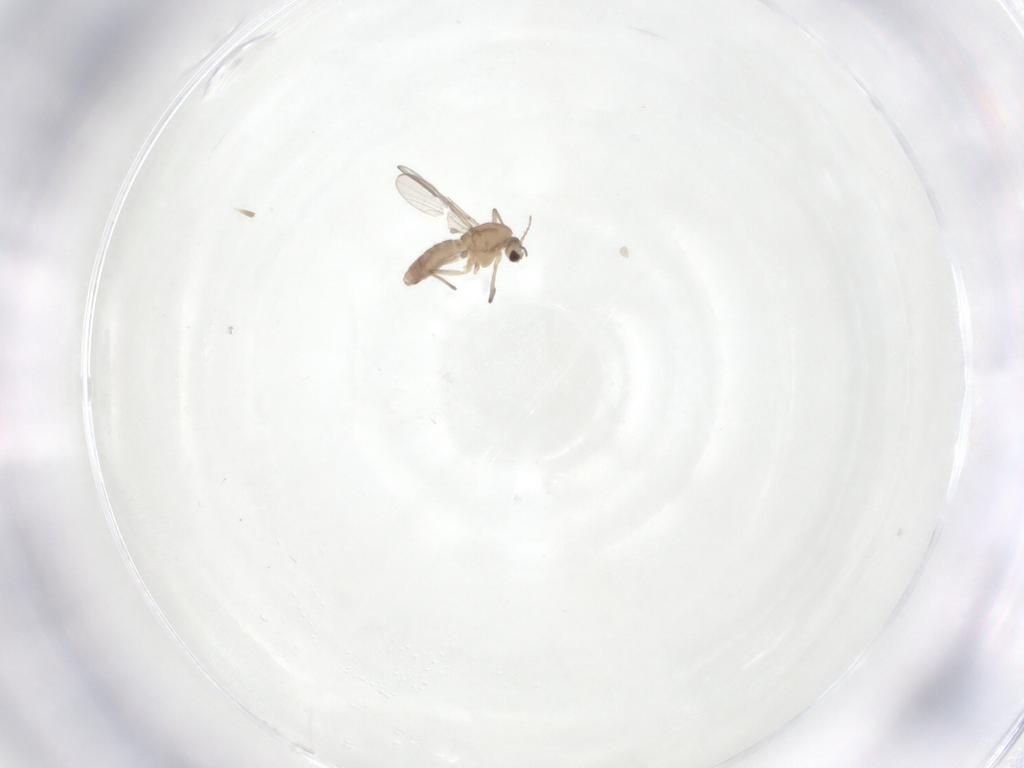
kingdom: Animalia
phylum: Arthropoda
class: Insecta
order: Diptera
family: Chironomidae
